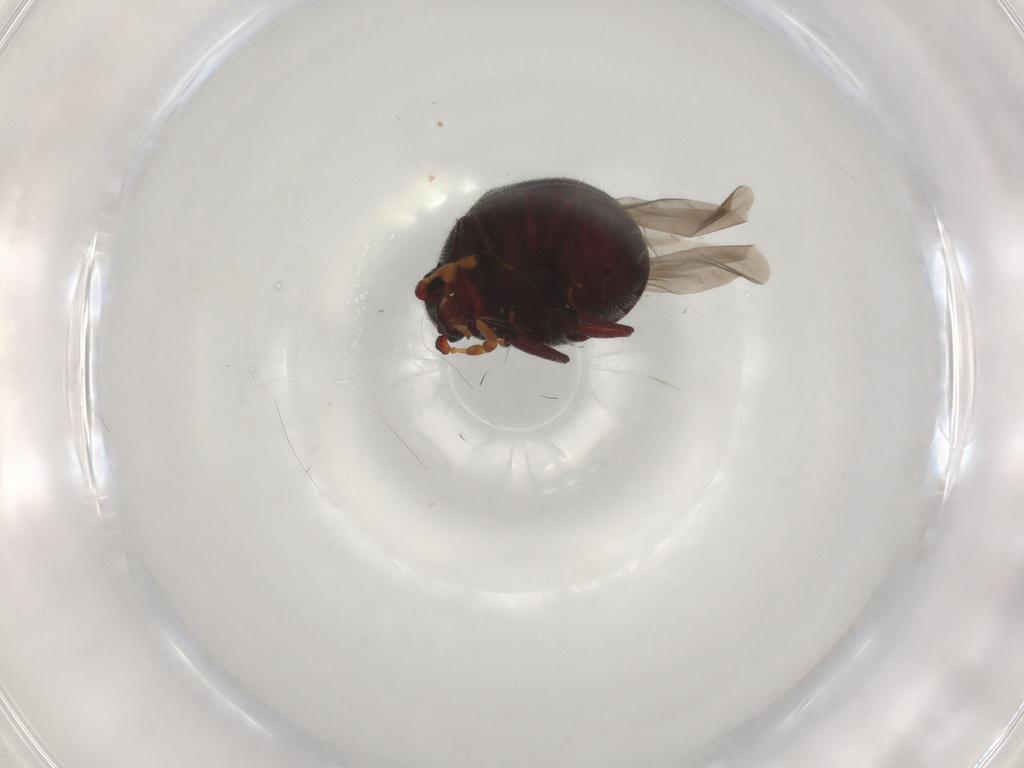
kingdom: Animalia
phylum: Arthropoda
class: Insecta
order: Coleoptera
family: Ptinidae
